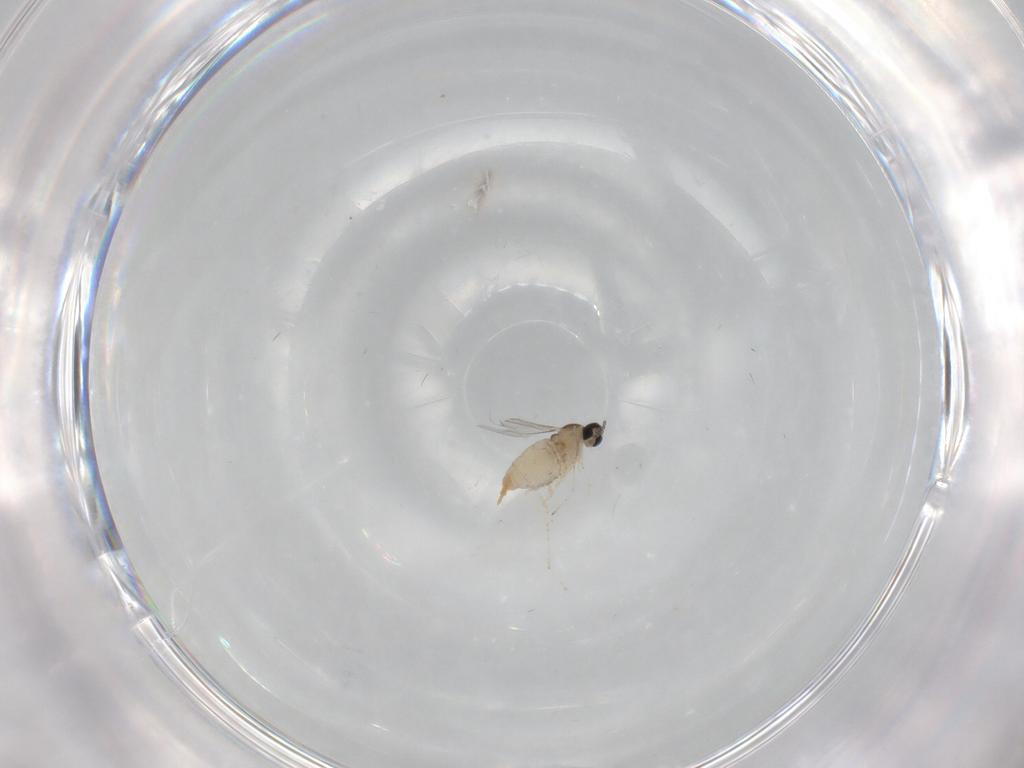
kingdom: Animalia
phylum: Arthropoda
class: Insecta
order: Diptera
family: Cecidomyiidae
